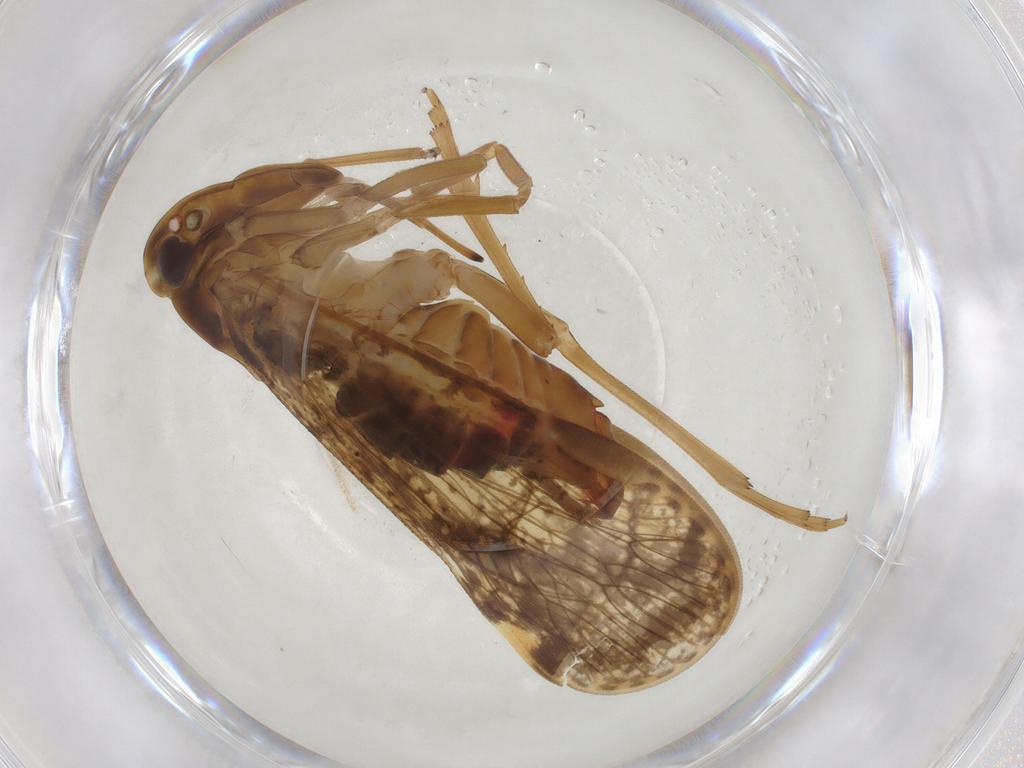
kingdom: Animalia
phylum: Arthropoda
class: Insecta
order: Hemiptera
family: Cixiidae
